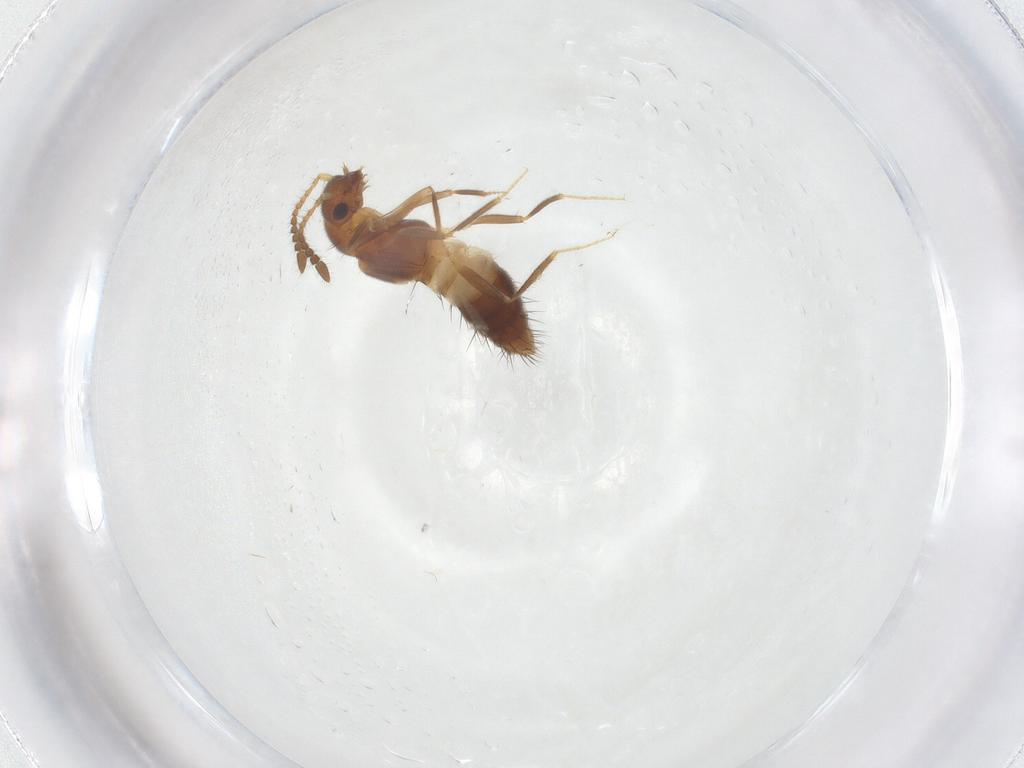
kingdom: Animalia
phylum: Arthropoda
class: Insecta
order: Coleoptera
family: Staphylinidae
